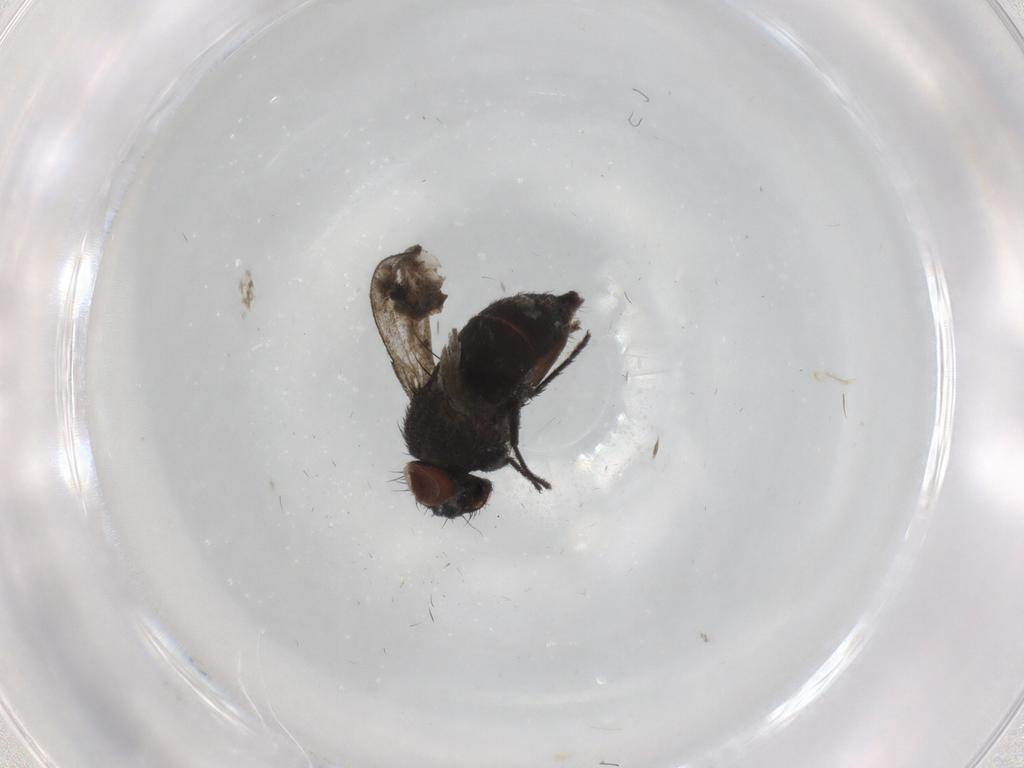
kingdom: Animalia
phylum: Arthropoda
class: Insecta
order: Diptera
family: Milichiidae
